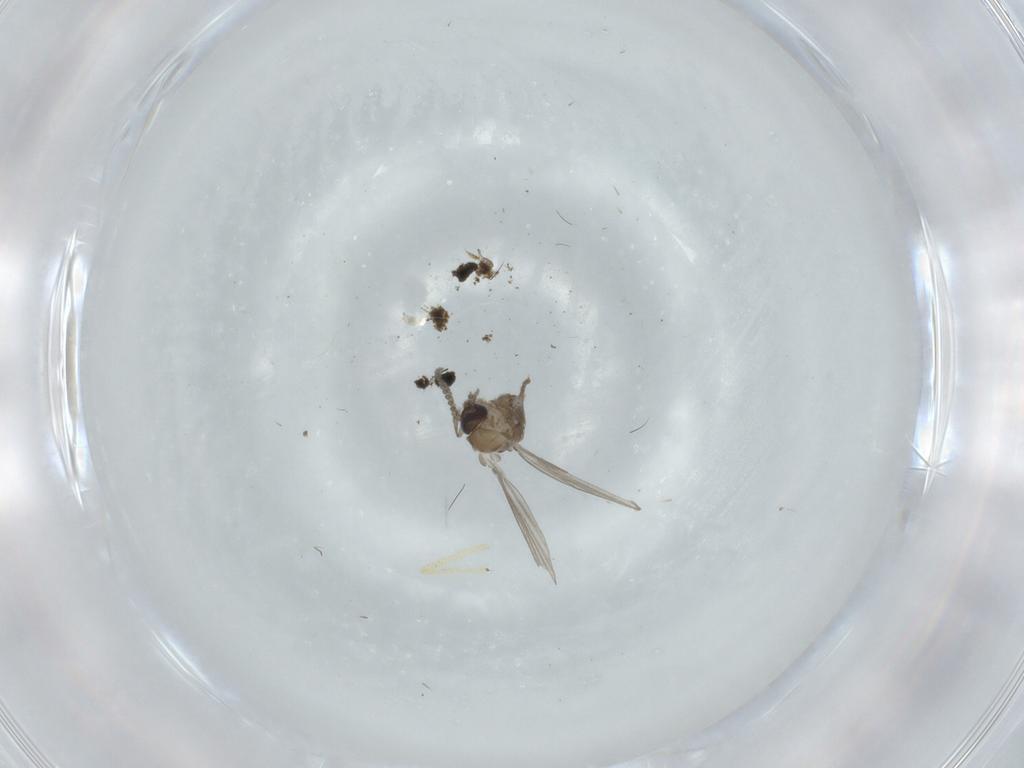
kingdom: Animalia
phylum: Arthropoda
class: Insecta
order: Diptera
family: Psychodidae
